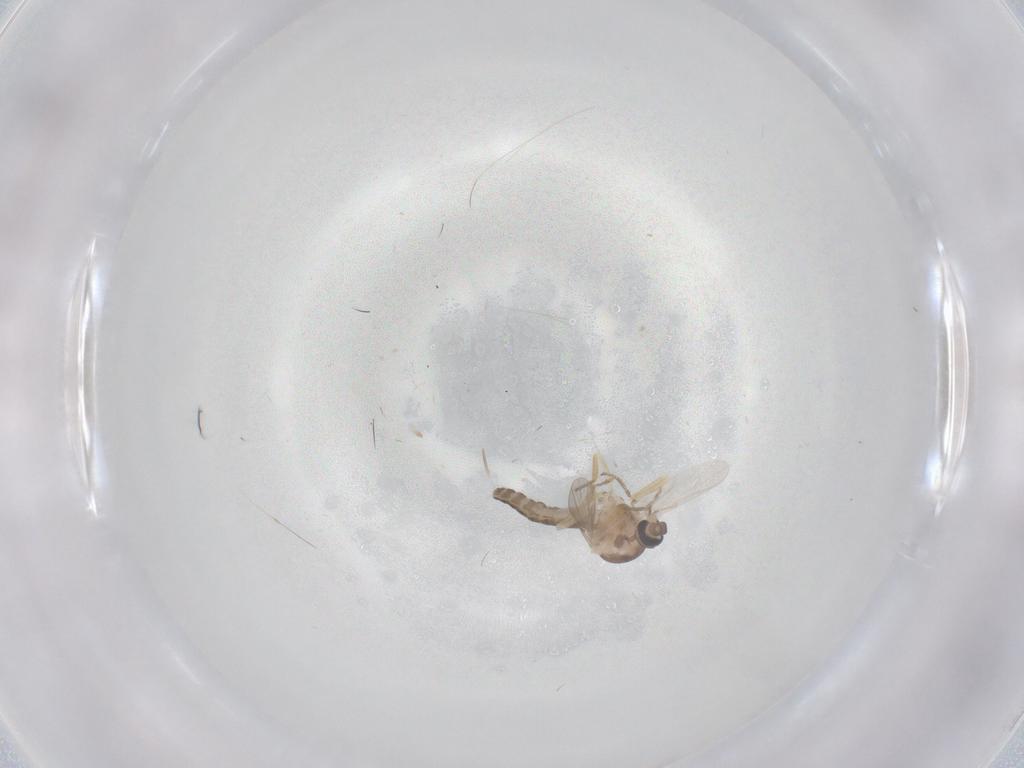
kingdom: Animalia
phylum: Arthropoda
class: Insecta
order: Diptera
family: Ceratopogonidae
